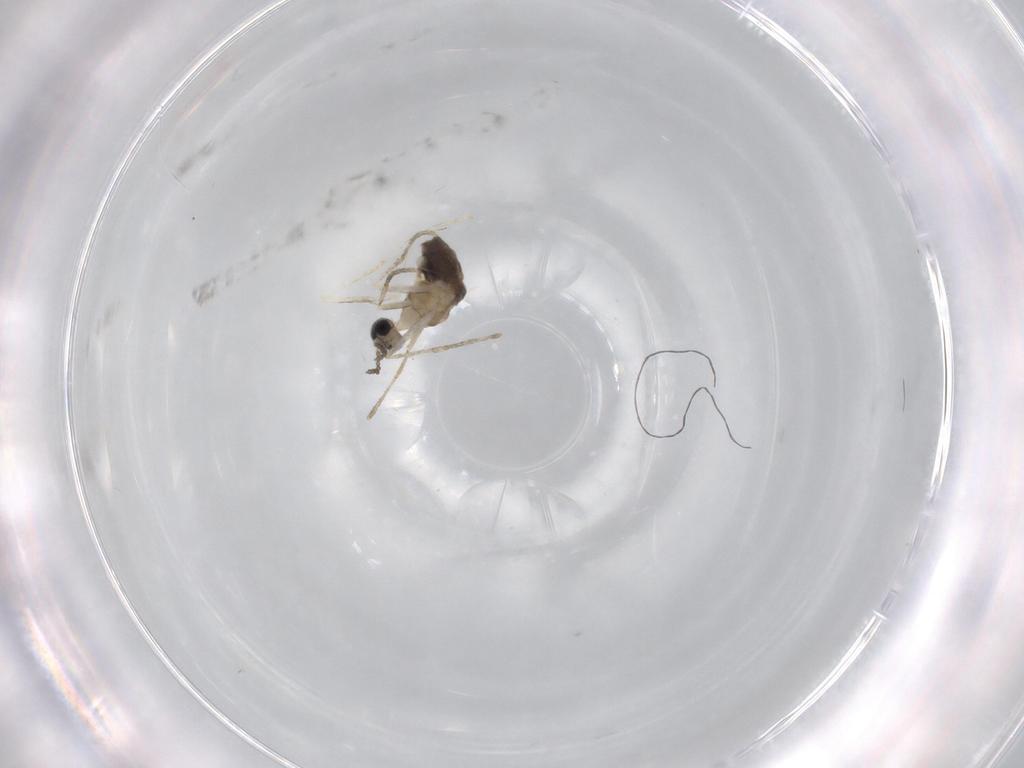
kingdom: Animalia
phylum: Arthropoda
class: Insecta
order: Diptera
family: Cecidomyiidae
